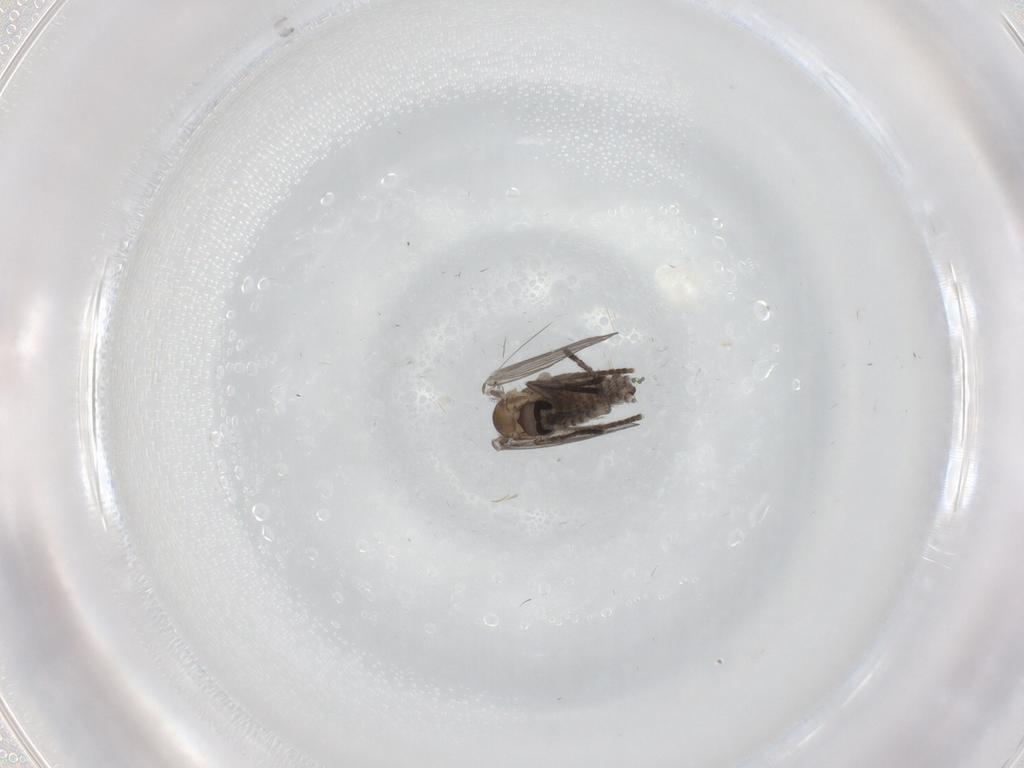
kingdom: Animalia
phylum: Arthropoda
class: Insecta
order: Diptera
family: Psychodidae
